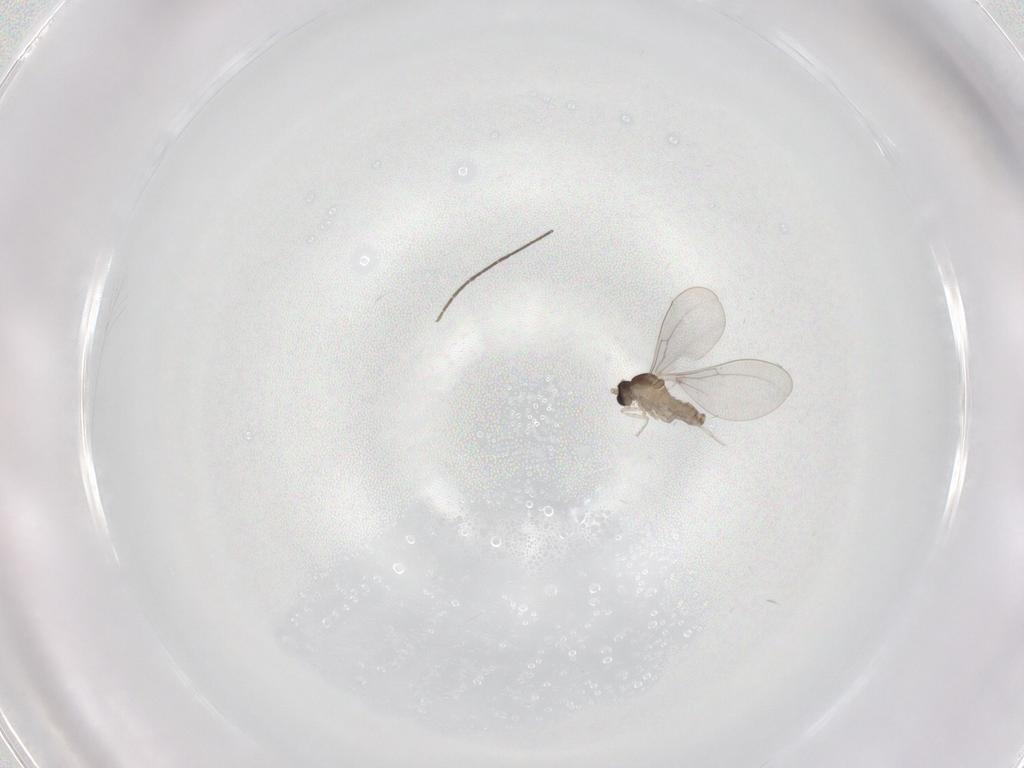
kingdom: Animalia
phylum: Arthropoda
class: Insecta
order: Diptera
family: Chironomidae
